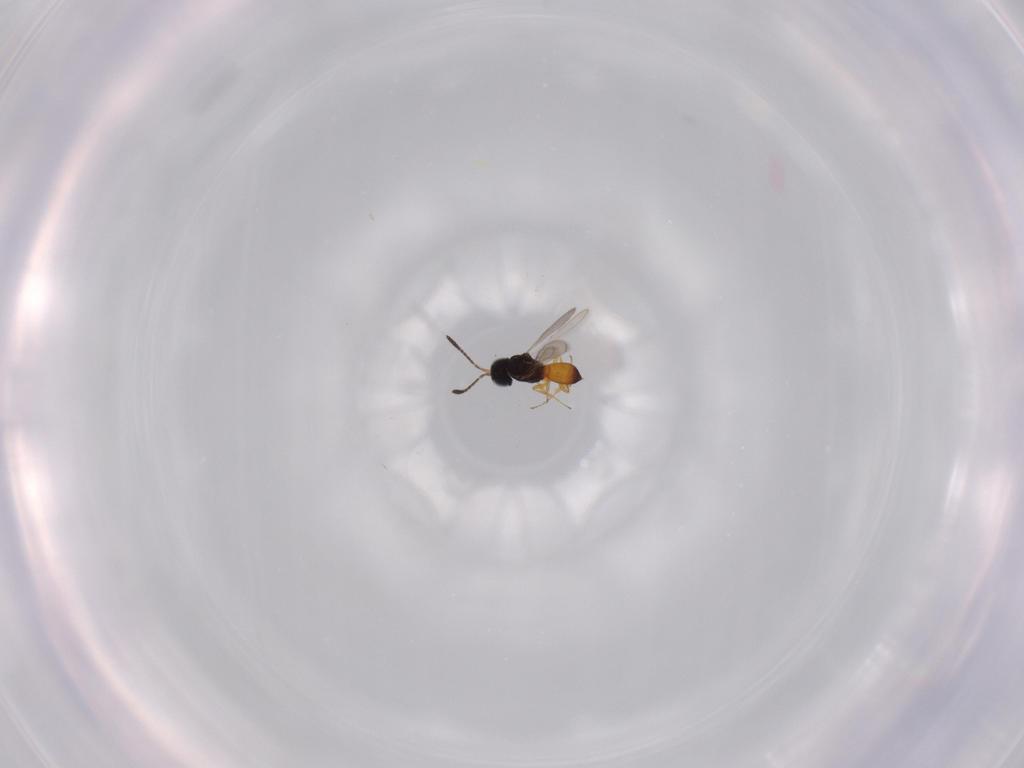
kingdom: Animalia
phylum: Arthropoda
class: Insecta
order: Hymenoptera
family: Scelionidae
